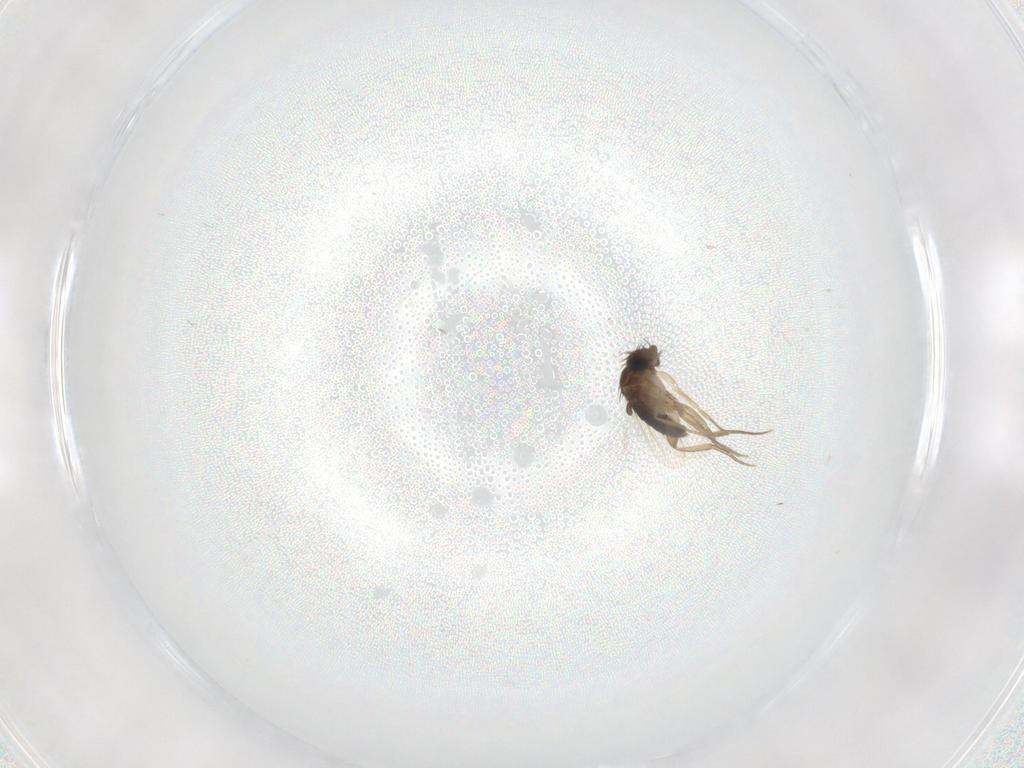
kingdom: Animalia
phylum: Arthropoda
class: Insecta
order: Diptera
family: Phoridae
